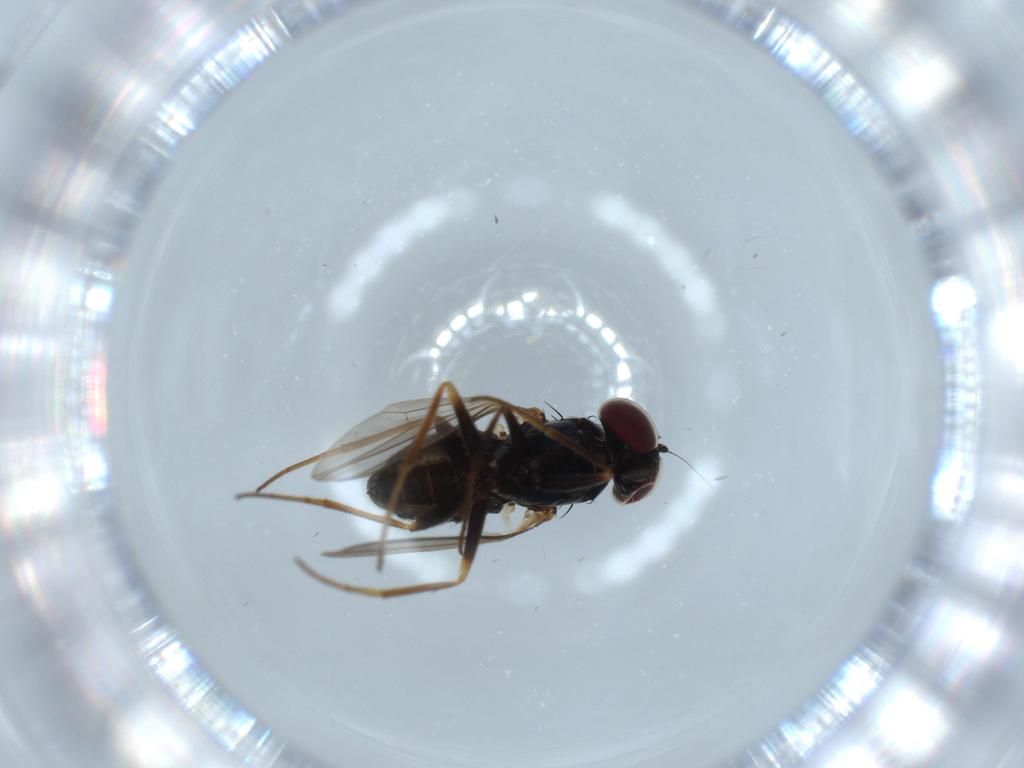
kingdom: Animalia
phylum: Arthropoda
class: Insecta
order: Diptera
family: Dolichopodidae
